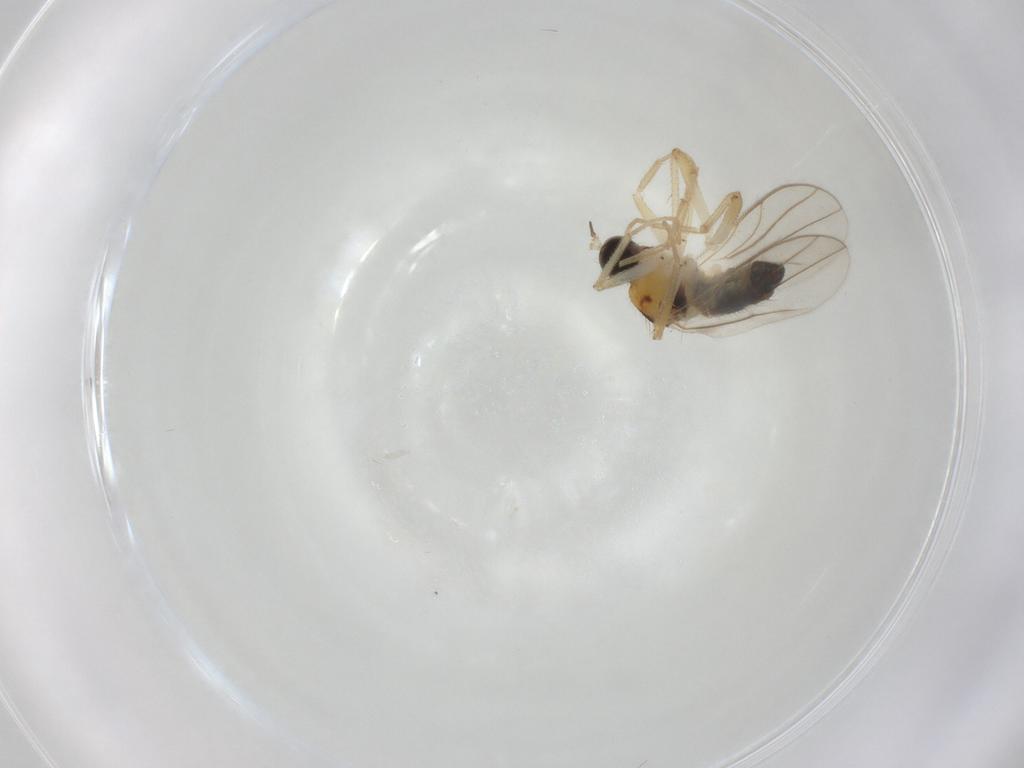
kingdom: Animalia
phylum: Arthropoda
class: Insecta
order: Diptera
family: Hybotidae
